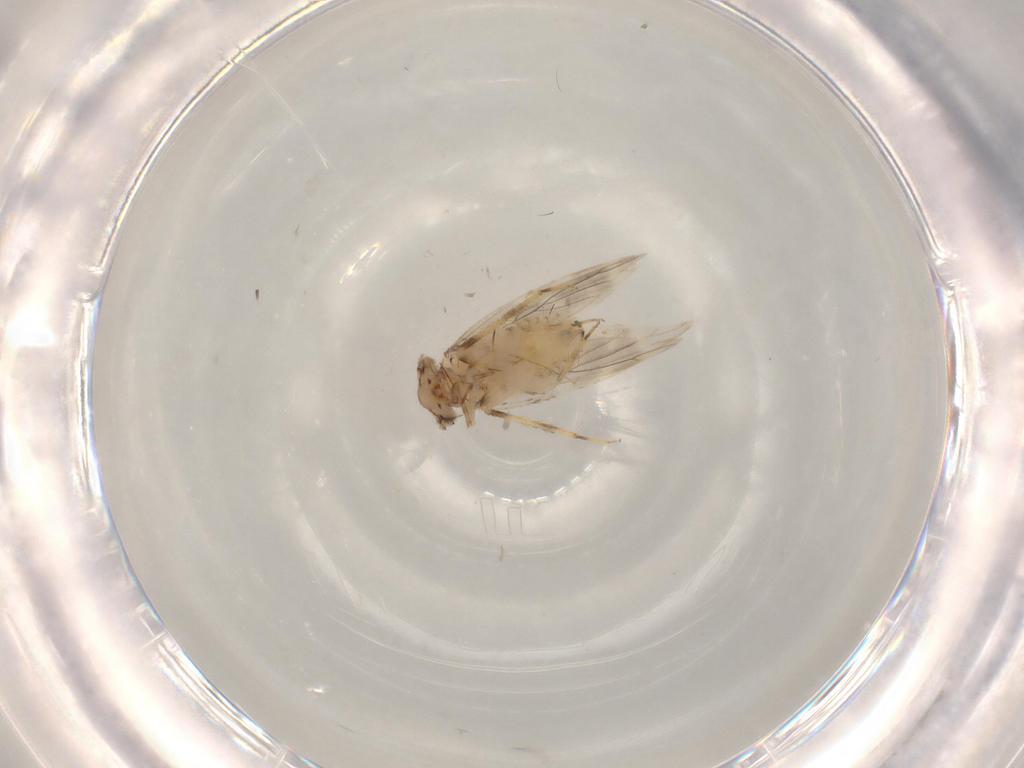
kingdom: Animalia
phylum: Arthropoda
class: Insecta
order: Psocodea
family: Lepidopsocidae
